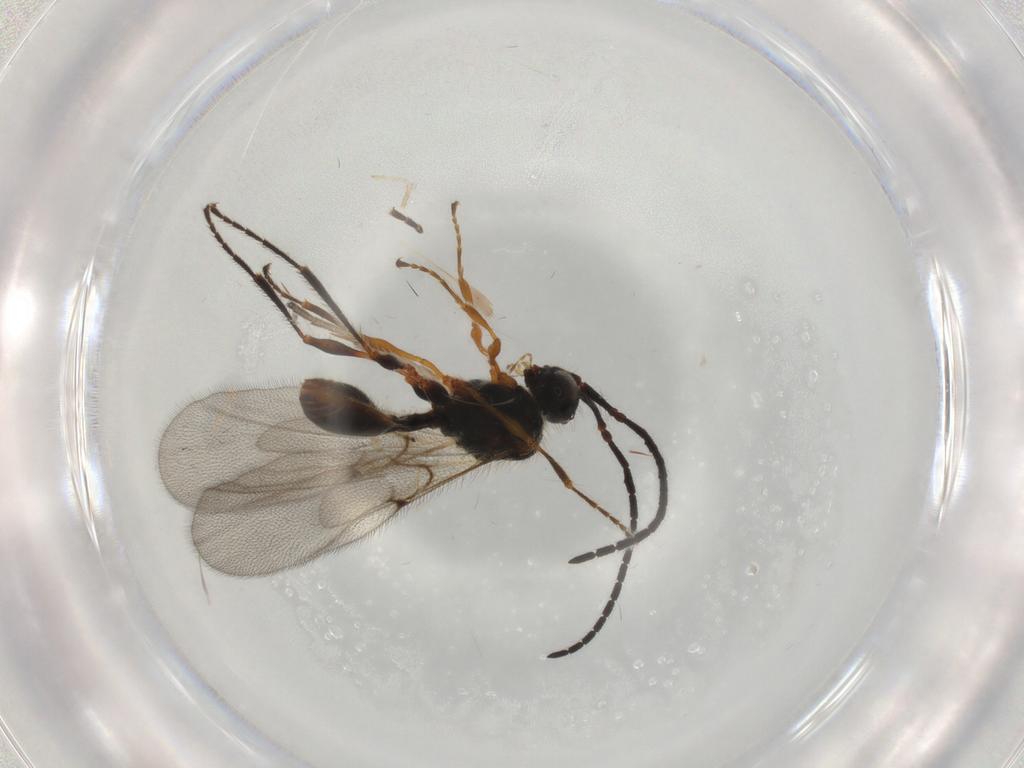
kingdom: Animalia
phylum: Arthropoda
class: Insecta
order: Hymenoptera
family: Diapriidae
